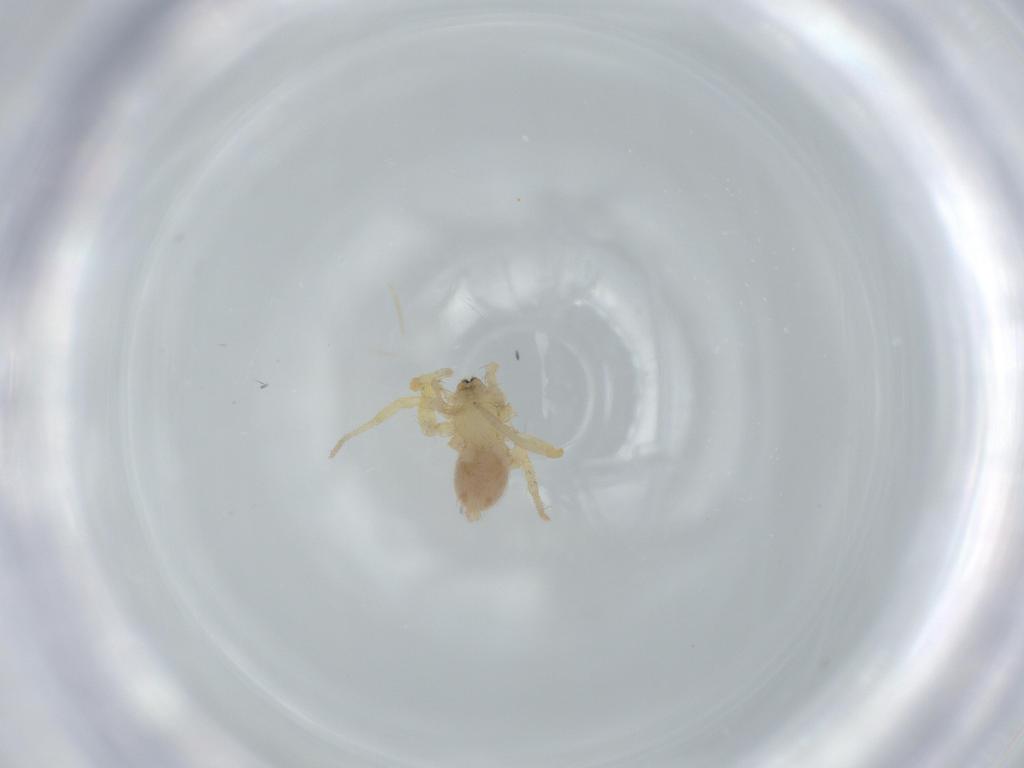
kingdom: Animalia
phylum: Arthropoda
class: Arachnida
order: Araneae
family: Oonopidae
